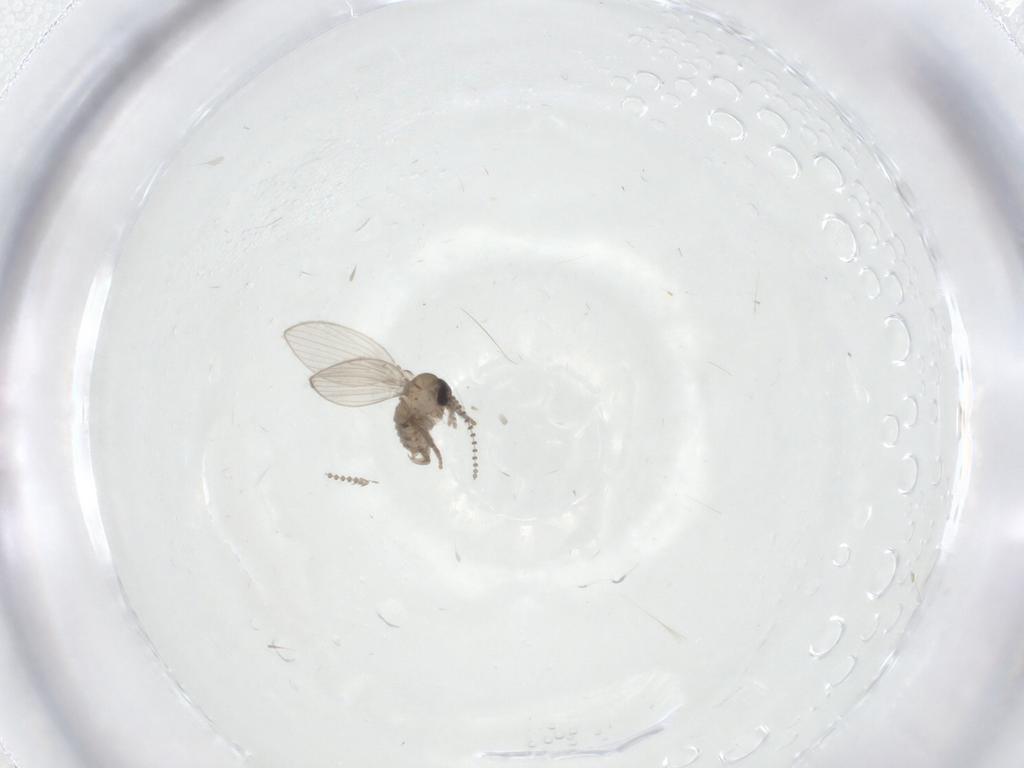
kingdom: Animalia
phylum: Arthropoda
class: Insecta
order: Diptera
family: Psychodidae
